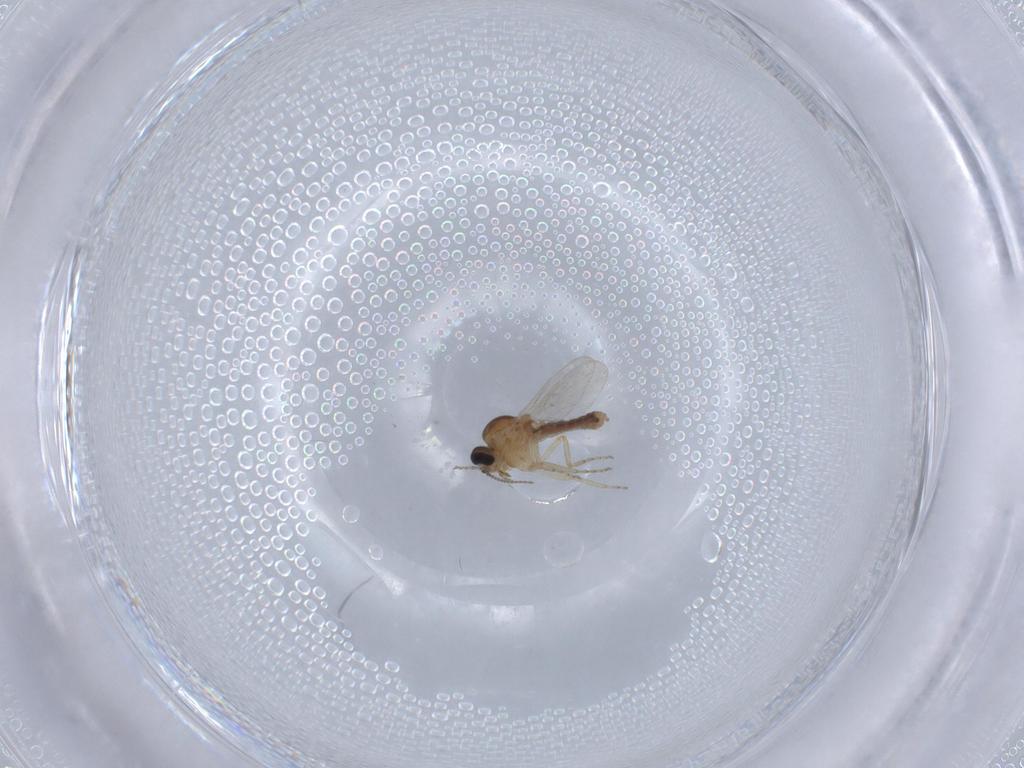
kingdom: Animalia
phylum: Arthropoda
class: Insecta
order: Diptera
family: Ceratopogonidae
